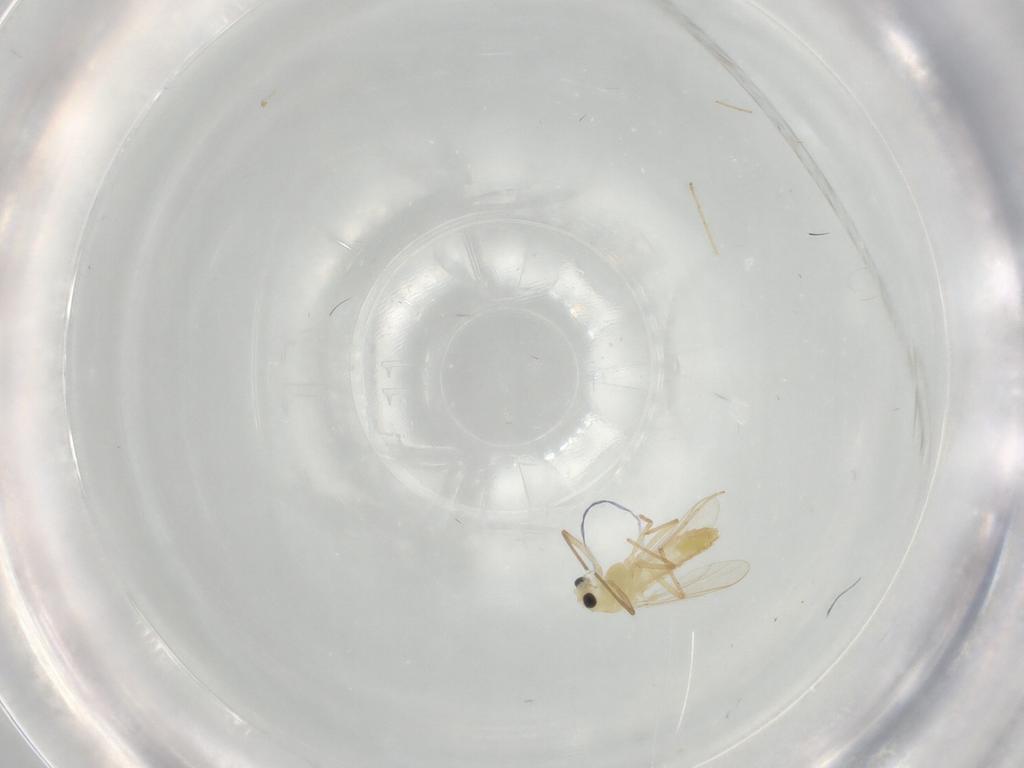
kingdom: Animalia
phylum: Arthropoda
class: Insecta
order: Diptera
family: Chironomidae
